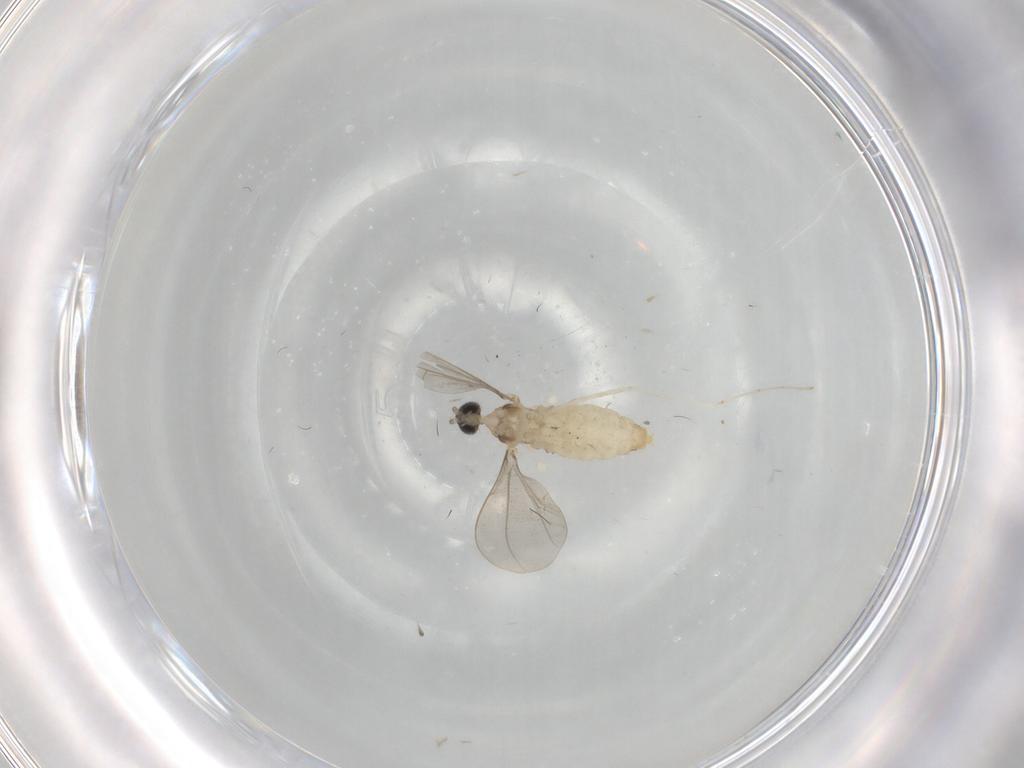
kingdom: Animalia
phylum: Arthropoda
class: Insecta
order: Diptera
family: Cecidomyiidae
